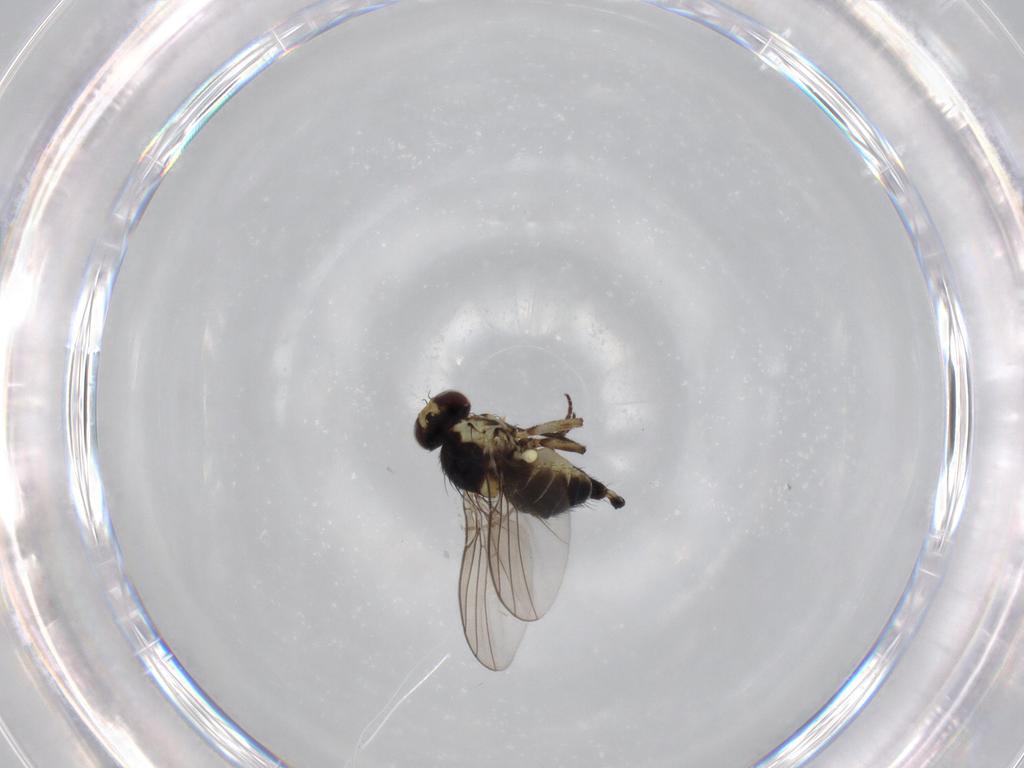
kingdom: Animalia
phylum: Arthropoda
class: Insecta
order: Diptera
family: Agromyzidae
